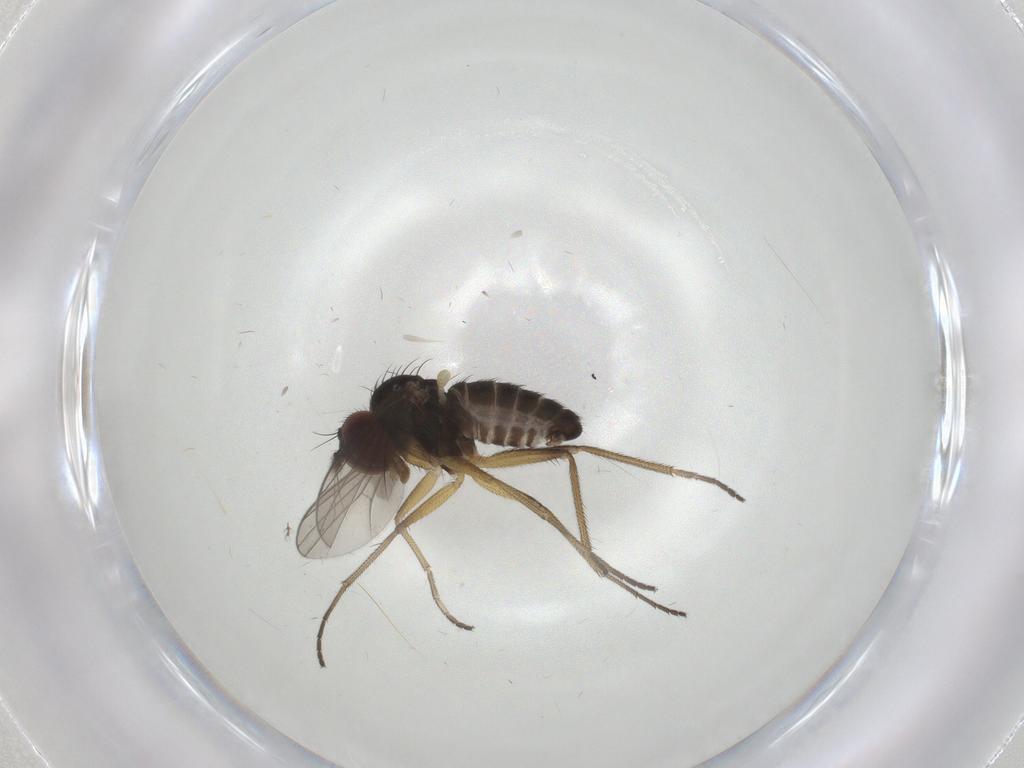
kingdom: Animalia
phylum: Arthropoda
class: Insecta
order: Diptera
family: Dolichopodidae
